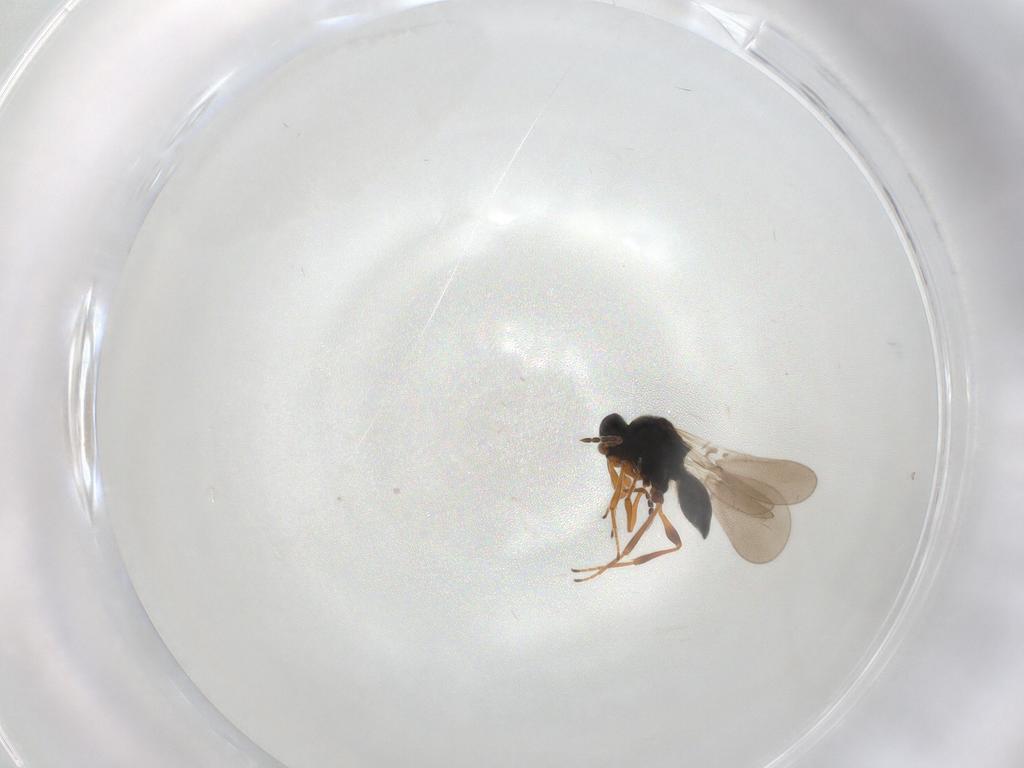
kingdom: Animalia
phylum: Arthropoda
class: Insecta
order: Hymenoptera
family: Platygastridae
